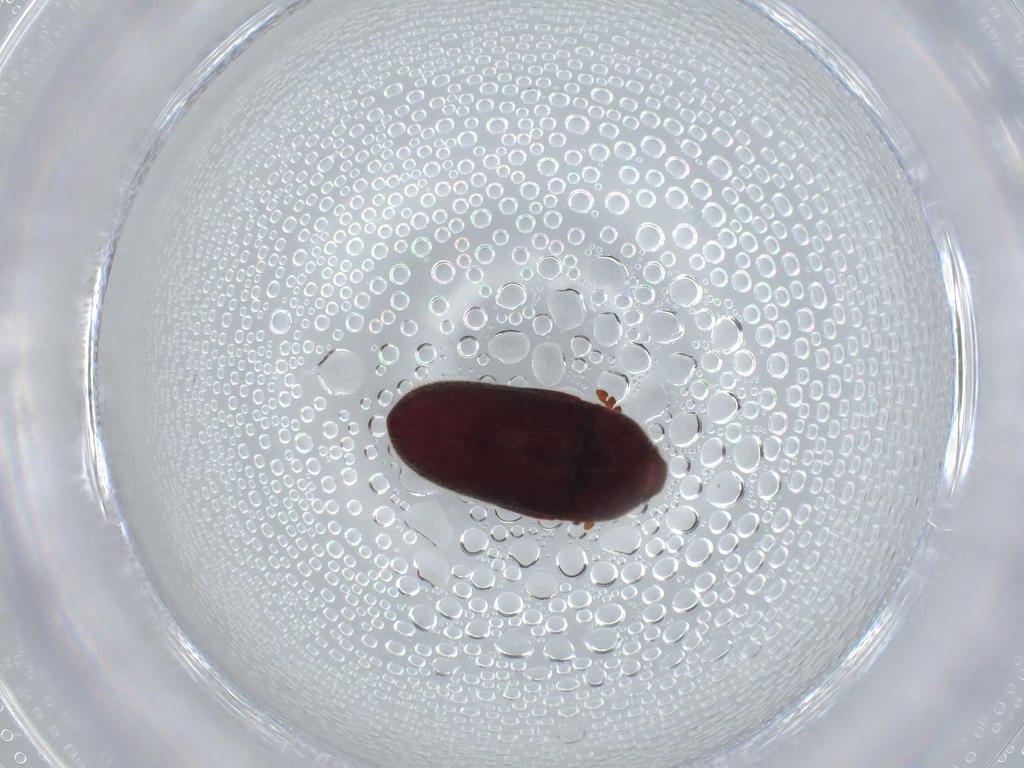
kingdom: Animalia
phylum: Arthropoda
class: Insecta
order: Coleoptera
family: Throscidae
